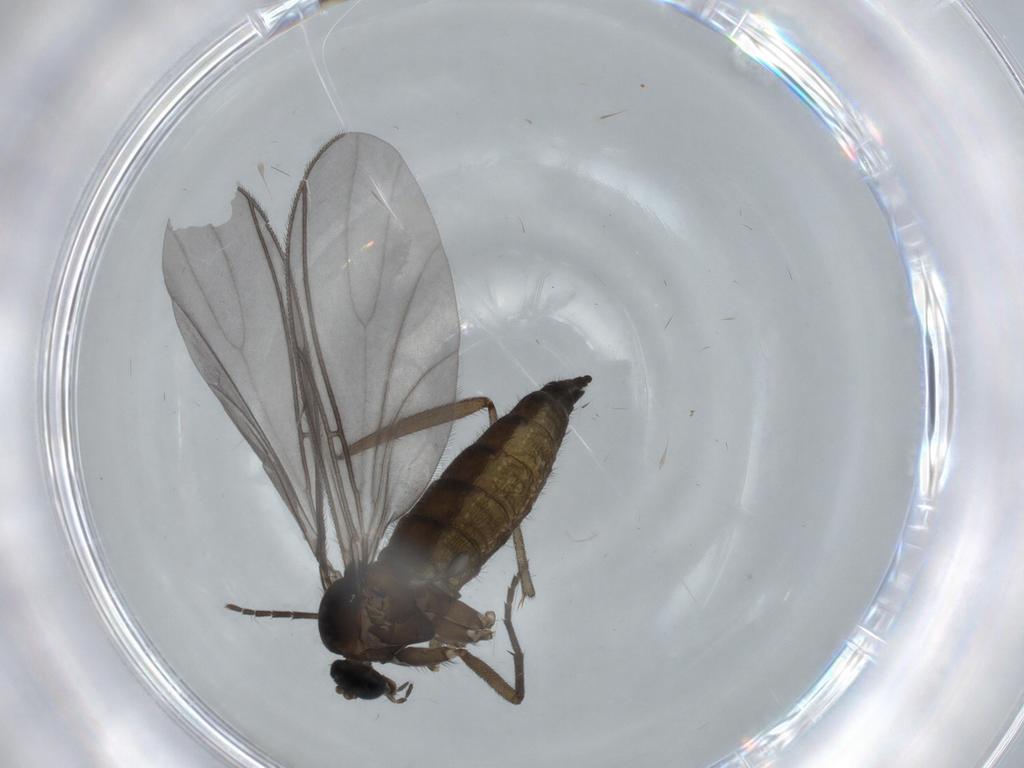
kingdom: Animalia
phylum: Arthropoda
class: Insecta
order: Diptera
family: Sciaridae
